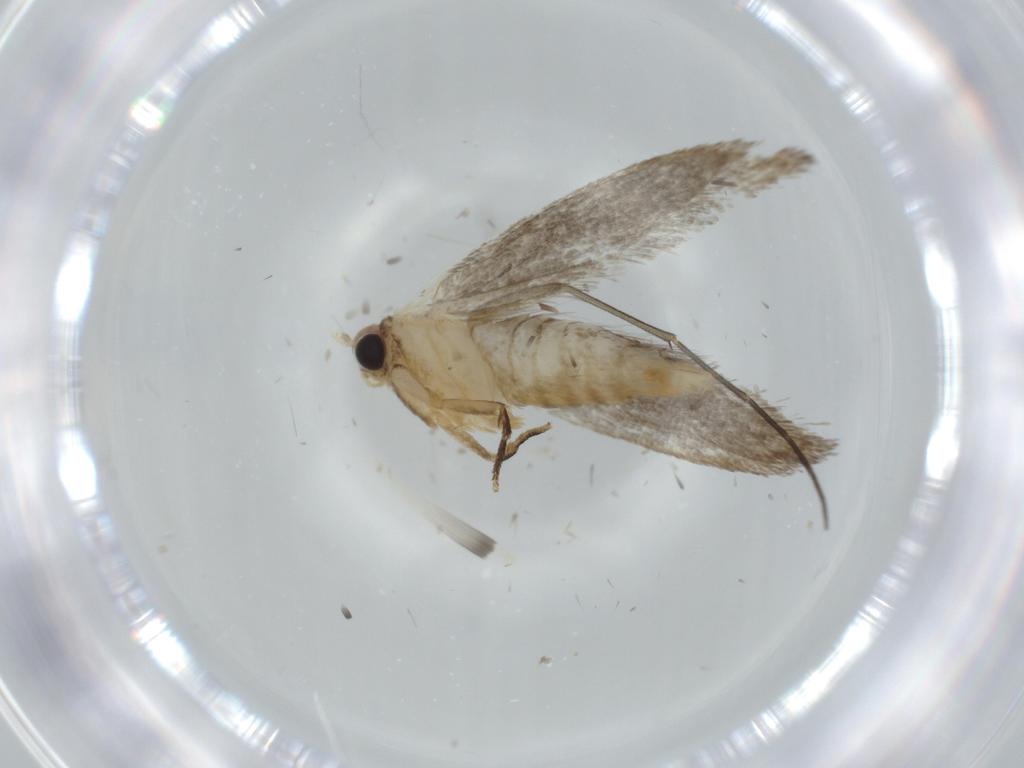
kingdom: Animalia
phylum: Arthropoda
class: Insecta
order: Lepidoptera
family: Tineidae
